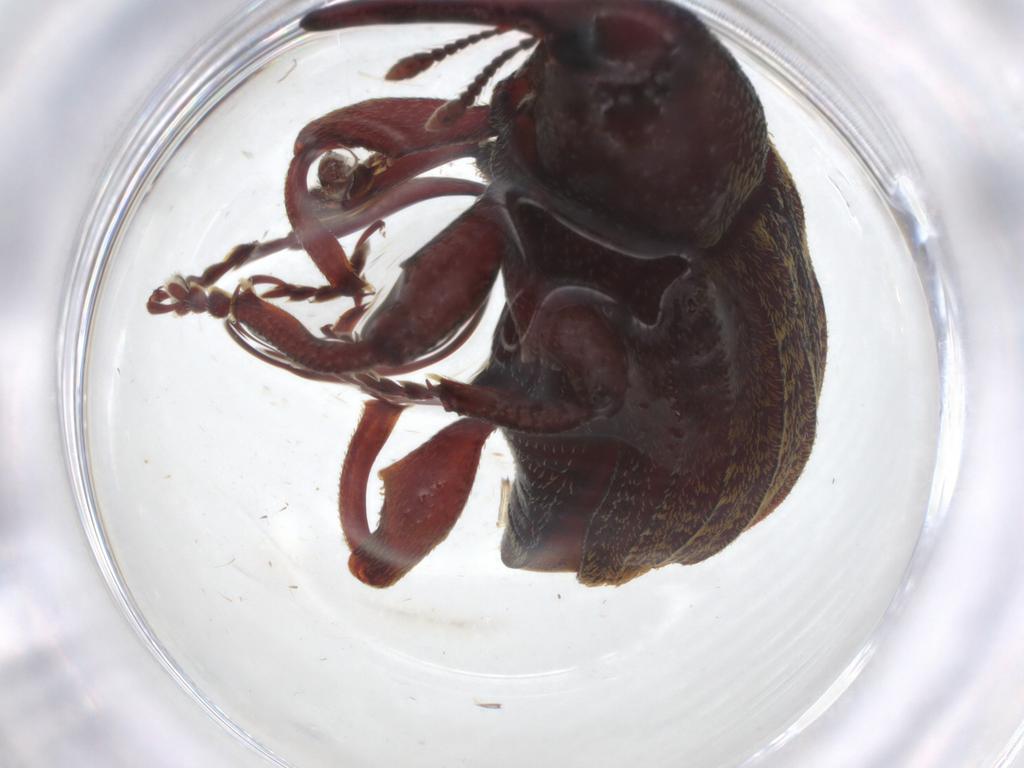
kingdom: Animalia
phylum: Arthropoda
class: Insecta
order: Coleoptera
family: Curculionidae
